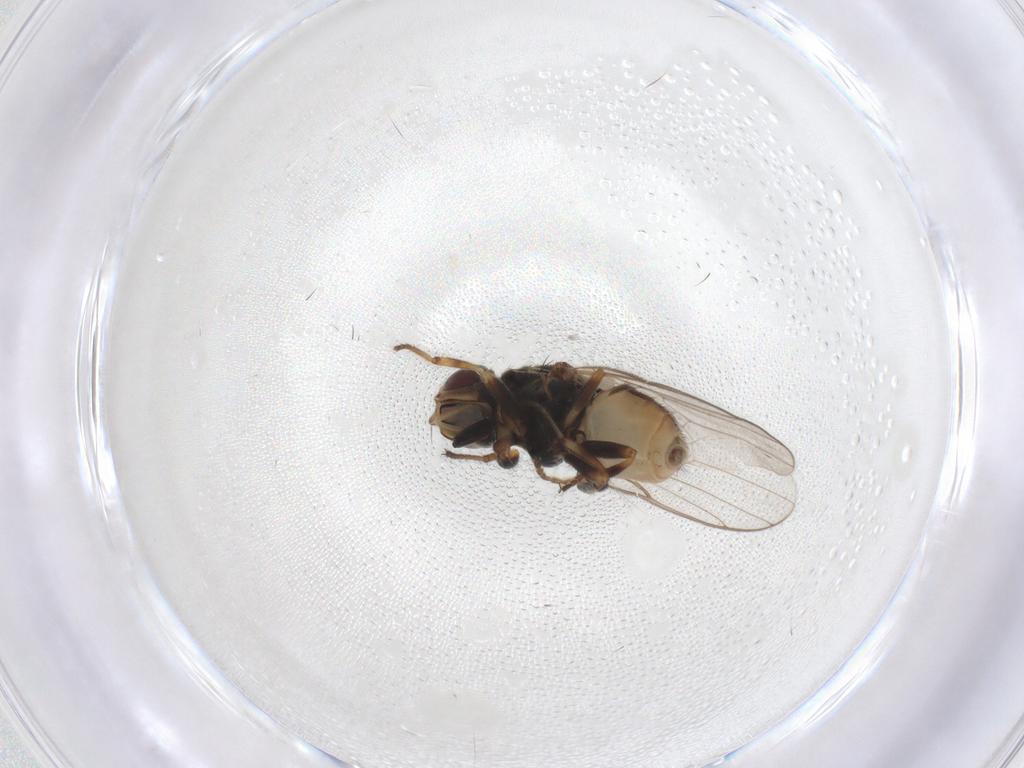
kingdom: Animalia
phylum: Arthropoda
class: Insecta
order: Diptera
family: Chloropidae
